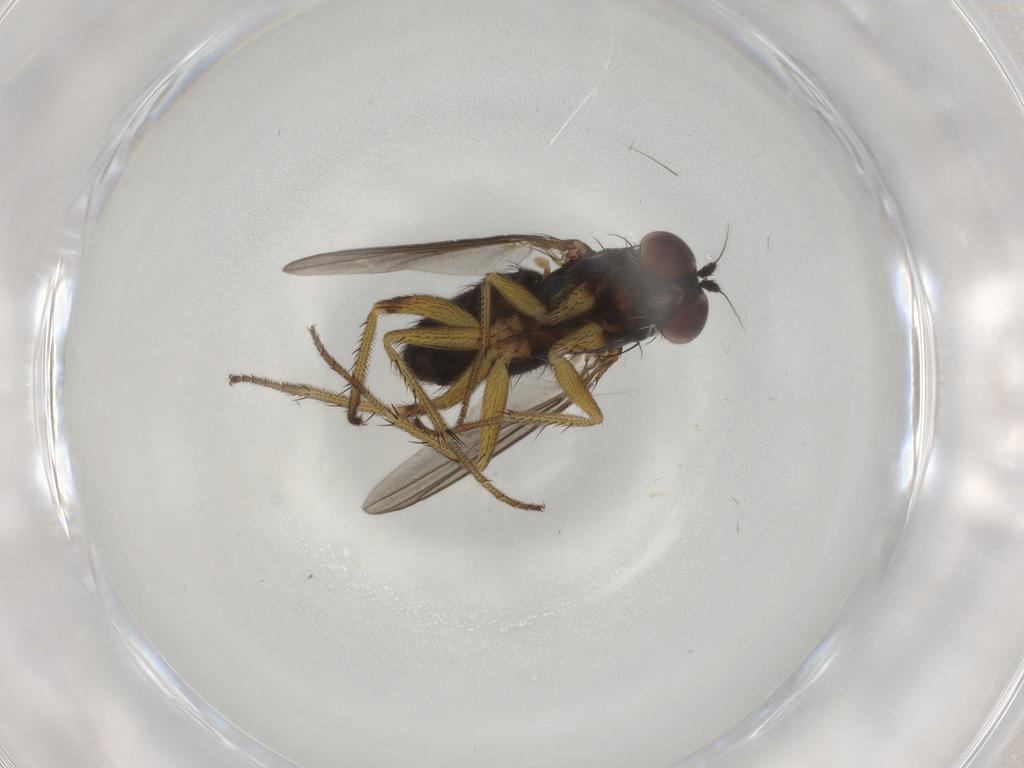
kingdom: Animalia
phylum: Arthropoda
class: Insecta
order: Diptera
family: Dolichopodidae
